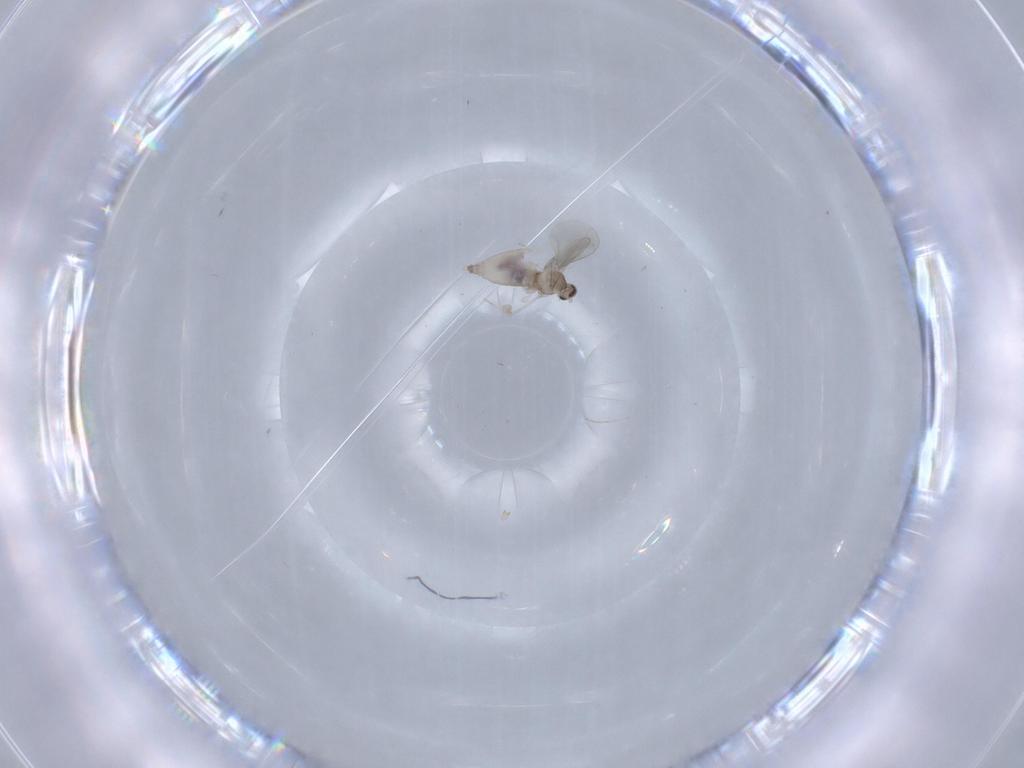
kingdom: Animalia
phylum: Arthropoda
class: Insecta
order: Diptera
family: Cecidomyiidae
